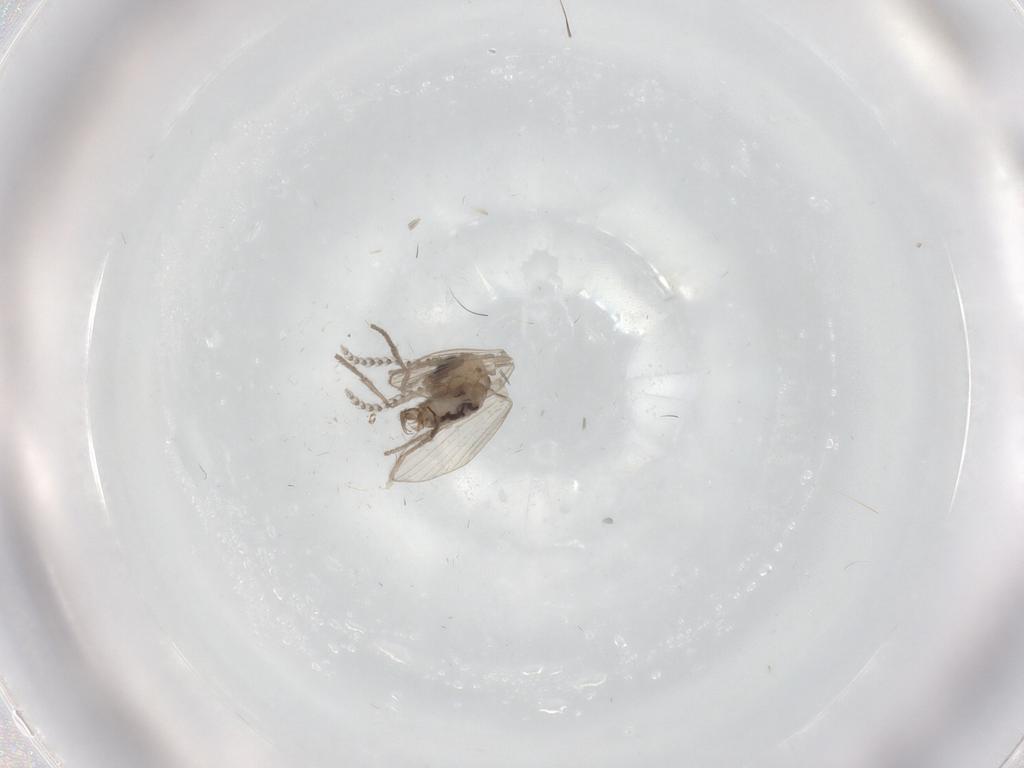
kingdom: Animalia
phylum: Arthropoda
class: Insecta
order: Diptera
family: Psychodidae
